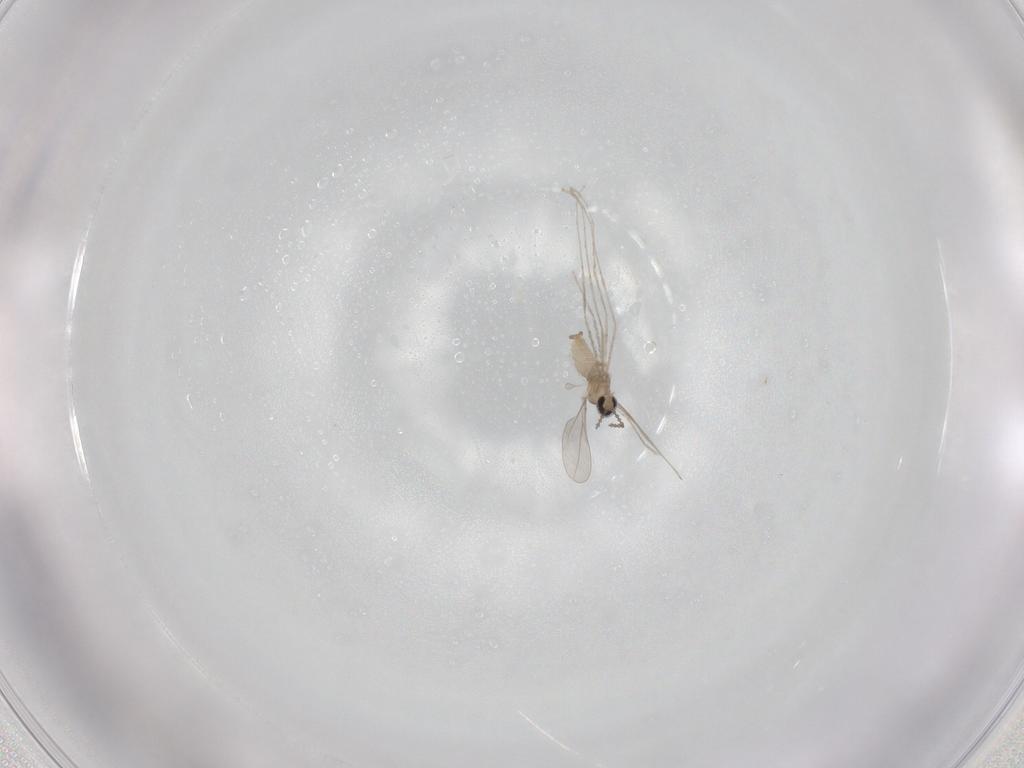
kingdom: Animalia
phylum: Arthropoda
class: Insecta
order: Diptera
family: Cecidomyiidae
